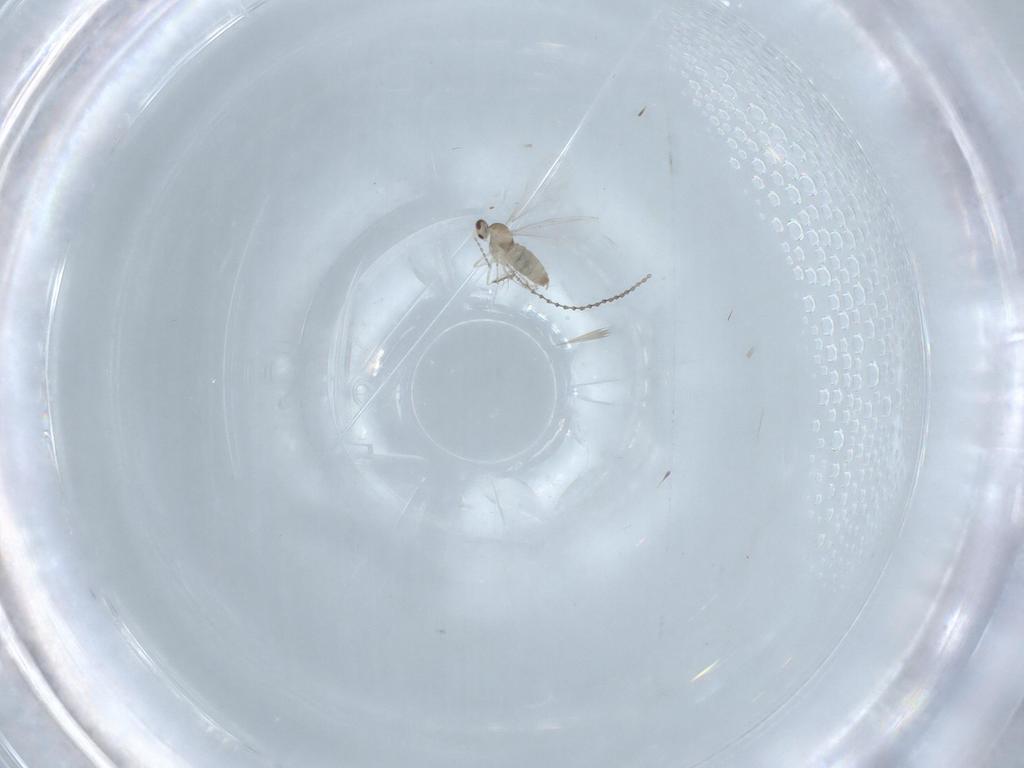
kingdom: Animalia
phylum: Arthropoda
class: Insecta
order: Diptera
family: Cecidomyiidae
